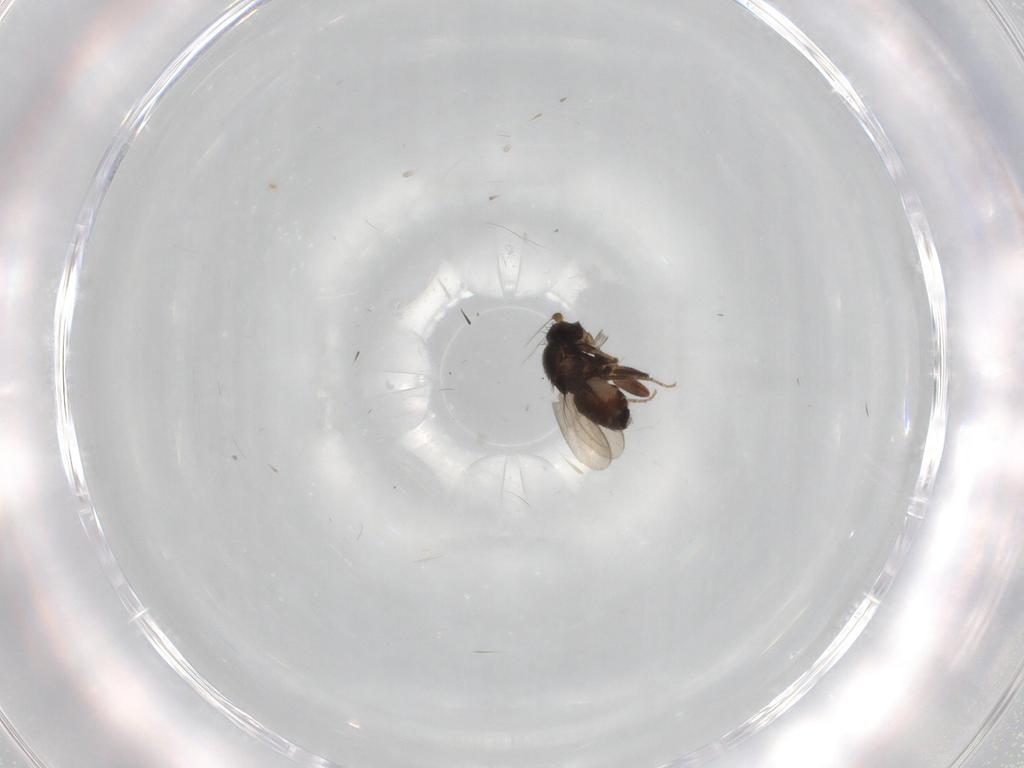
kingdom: Animalia
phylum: Arthropoda
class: Insecta
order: Diptera
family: Sphaeroceridae
